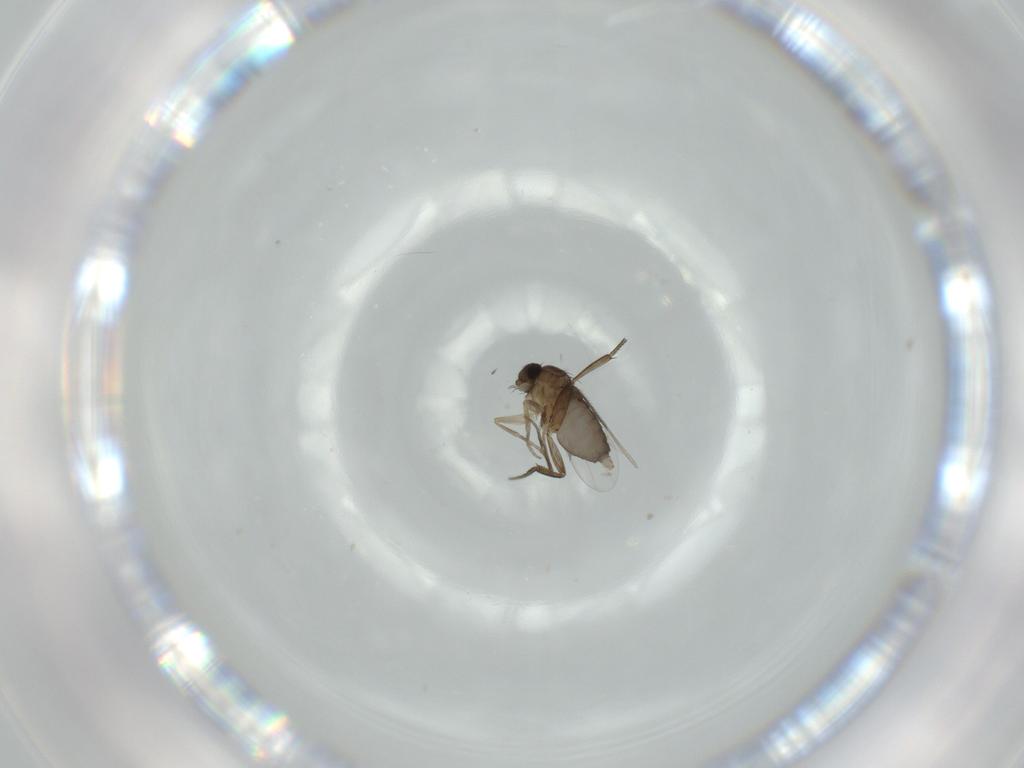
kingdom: Animalia
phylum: Arthropoda
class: Insecta
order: Diptera
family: Phoridae
